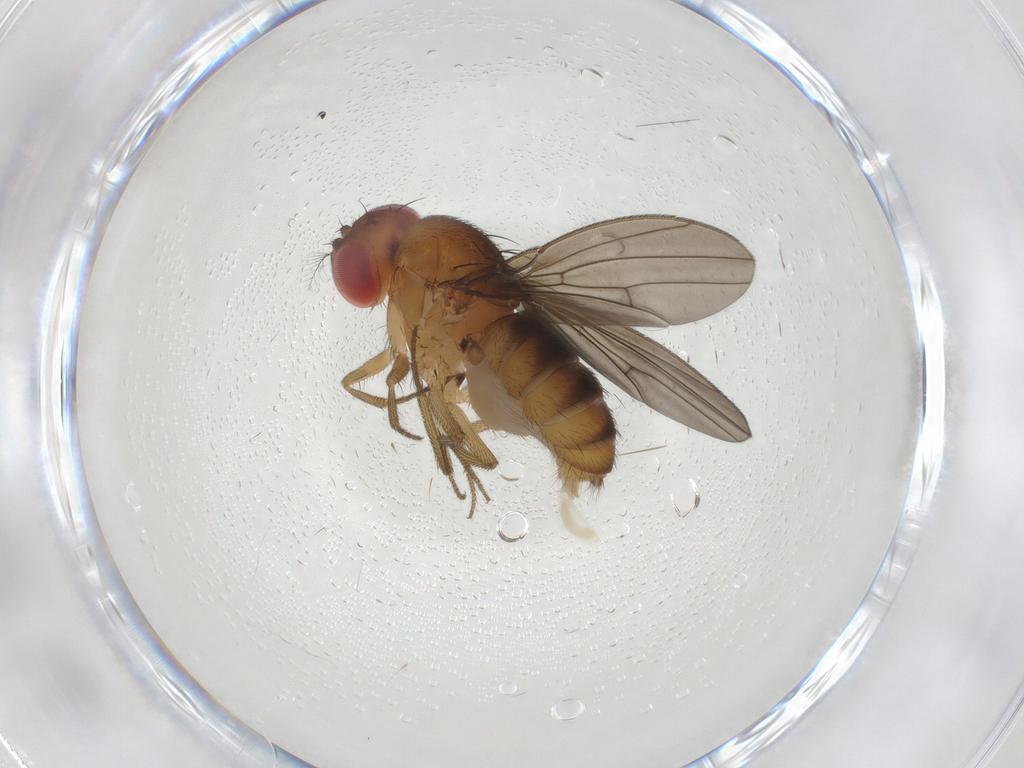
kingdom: Animalia
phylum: Arthropoda
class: Insecta
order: Diptera
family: Drosophilidae
